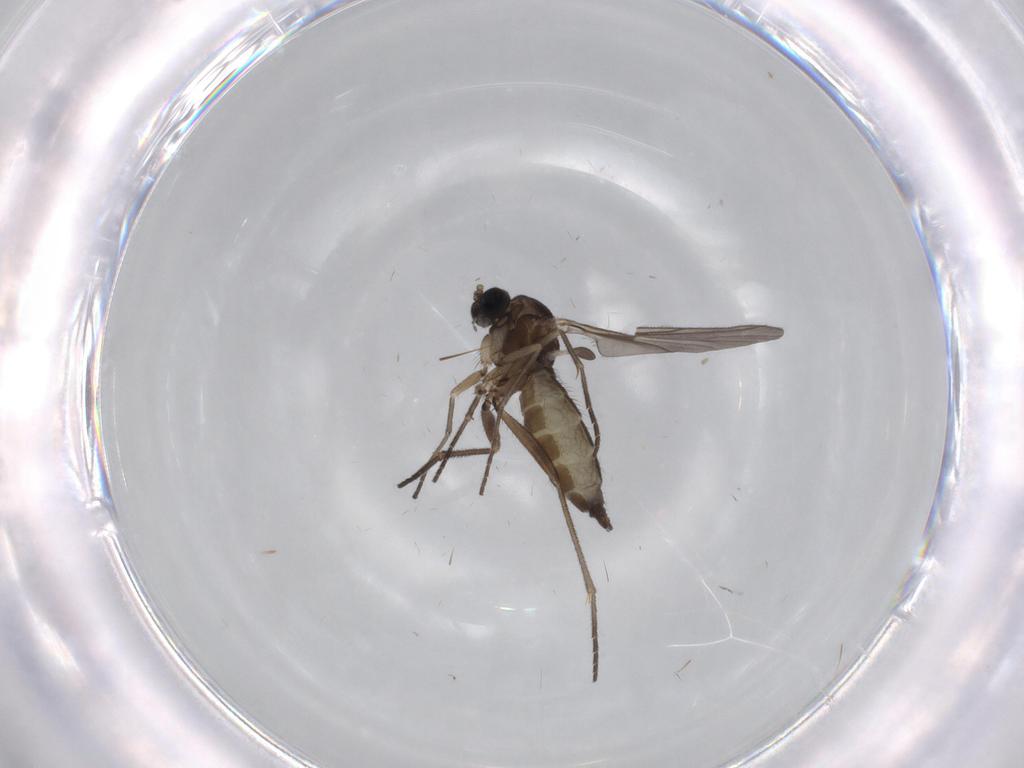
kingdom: Animalia
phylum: Arthropoda
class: Insecta
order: Diptera
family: Sciaridae
